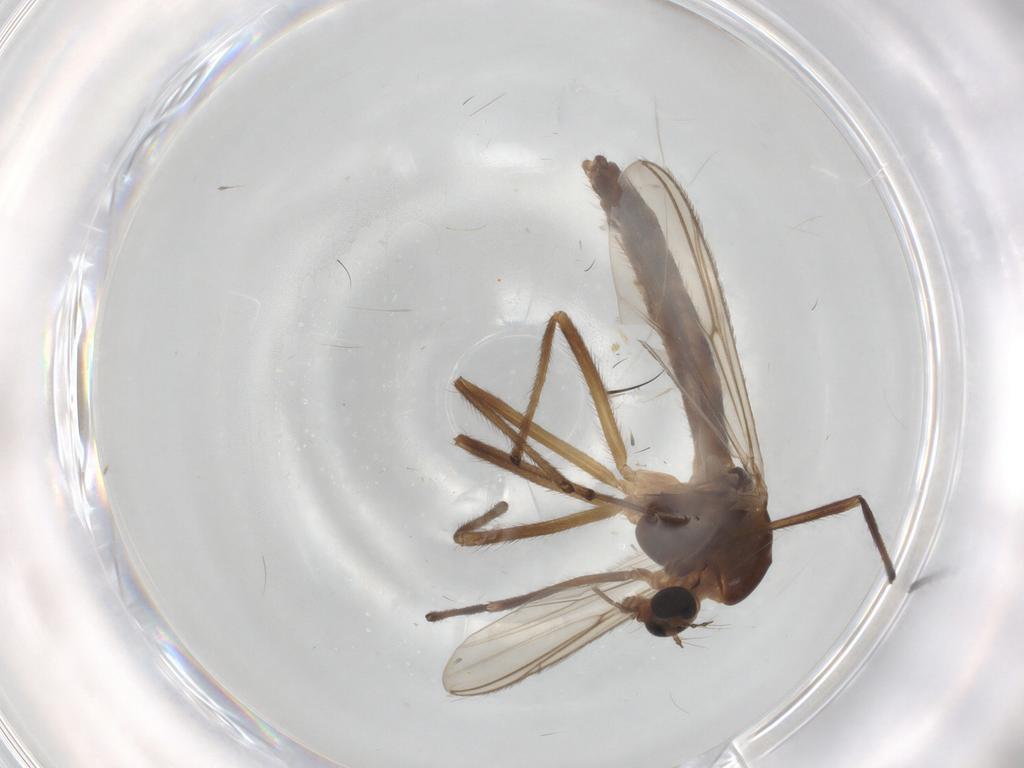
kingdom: Animalia
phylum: Arthropoda
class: Insecta
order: Diptera
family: Chironomidae
